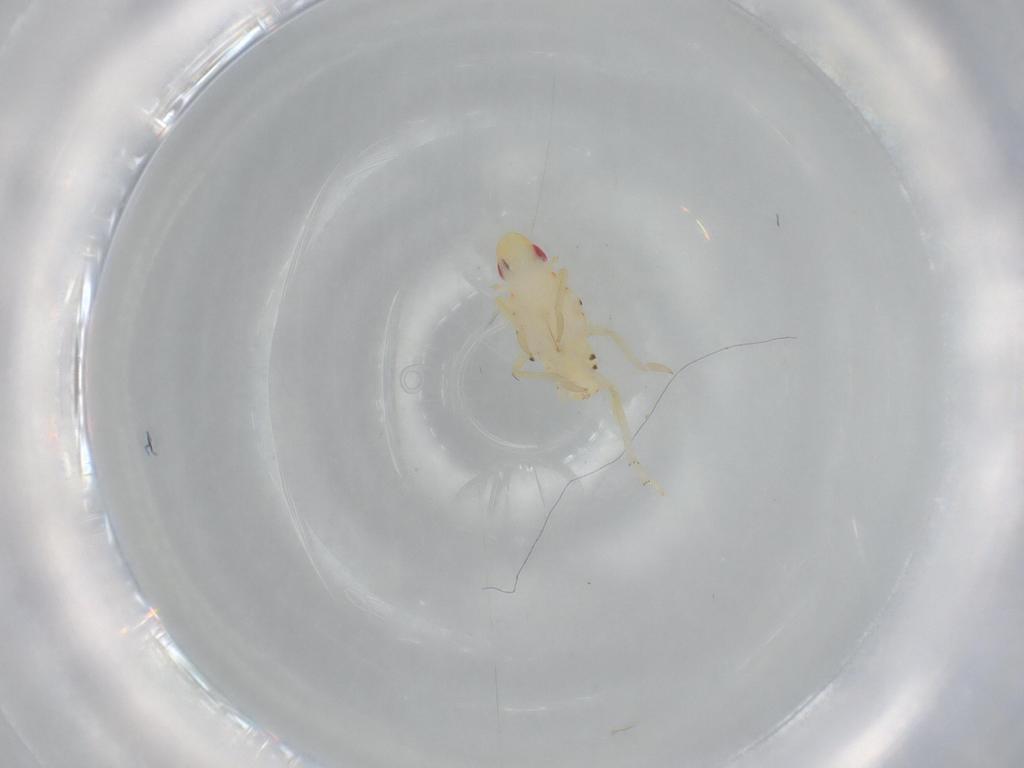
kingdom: Animalia
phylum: Arthropoda
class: Insecta
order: Hemiptera
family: Tropiduchidae
